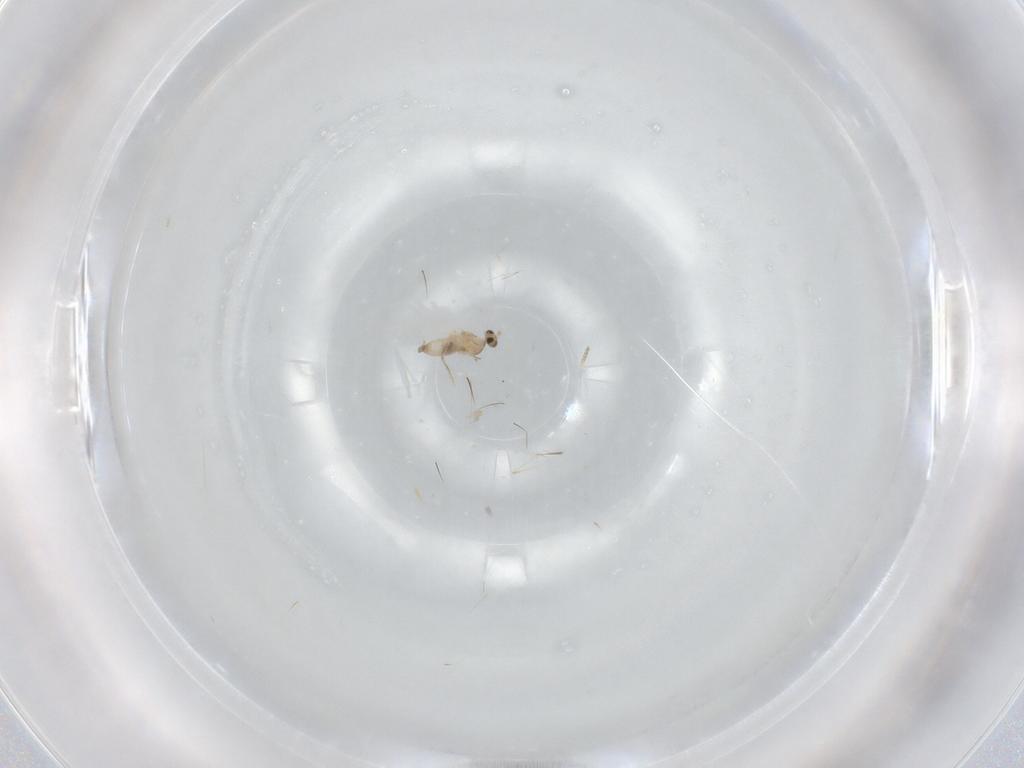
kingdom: Animalia
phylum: Arthropoda
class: Insecta
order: Diptera
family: Cecidomyiidae
